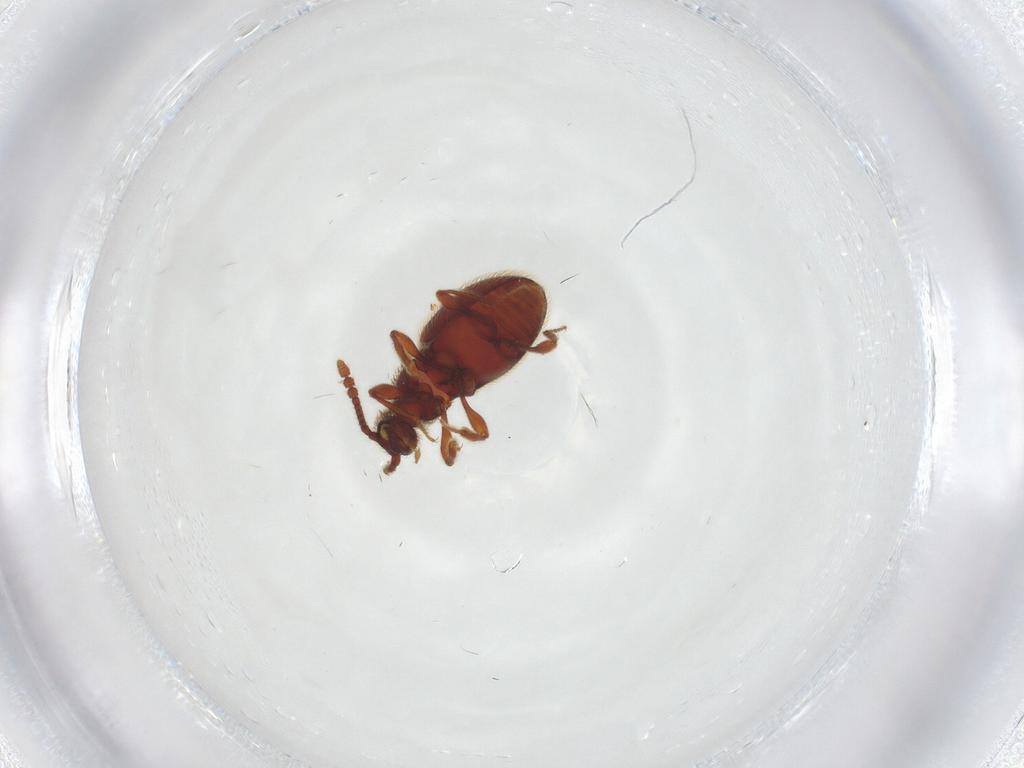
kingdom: Animalia
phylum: Arthropoda
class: Insecta
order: Coleoptera
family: Staphylinidae
